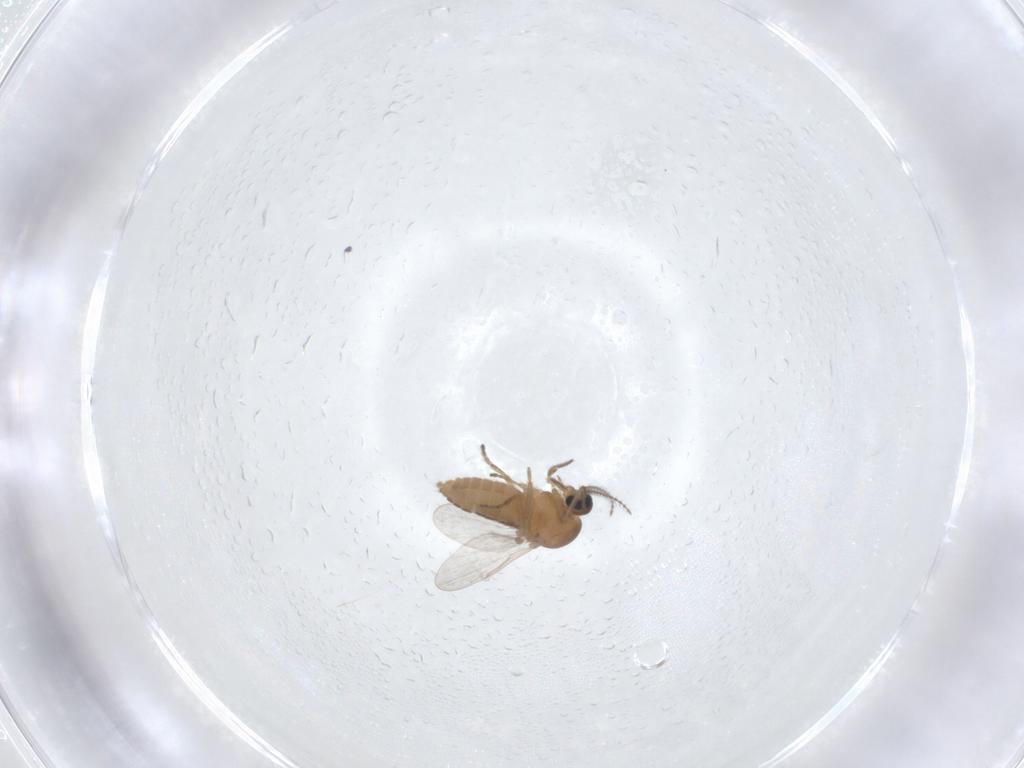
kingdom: Animalia
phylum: Arthropoda
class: Insecta
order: Diptera
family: Ceratopogonidae
